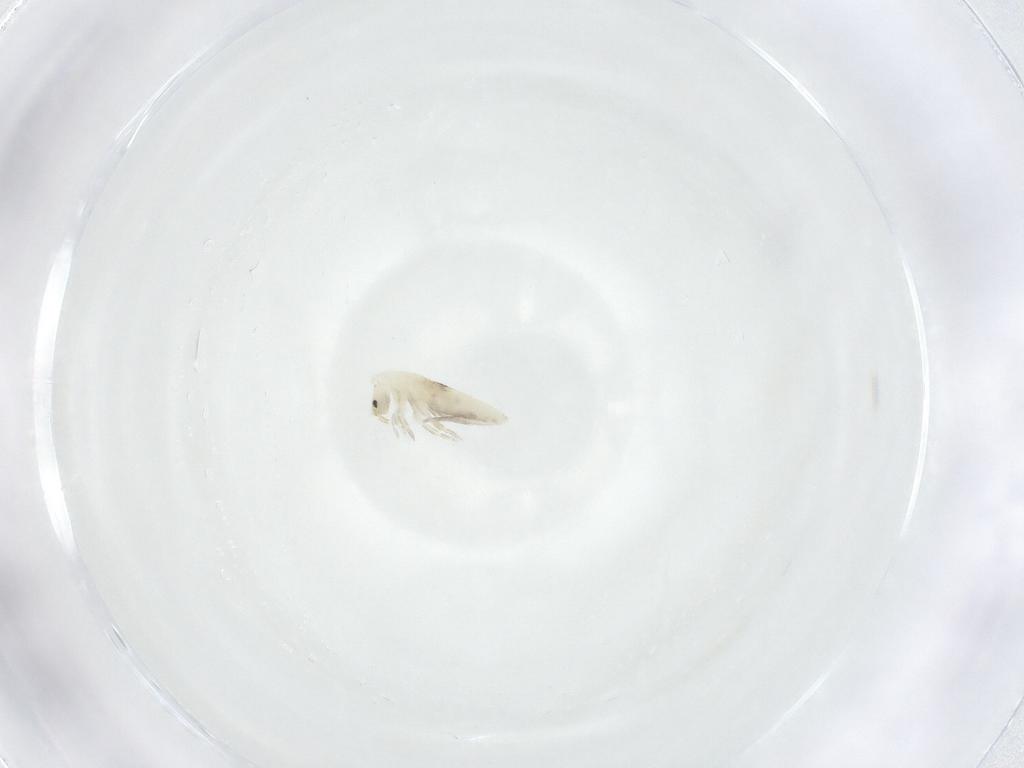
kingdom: Animalia
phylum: Arthropoda
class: Collembola
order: Entomobryomorpha
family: Entomobryidae
